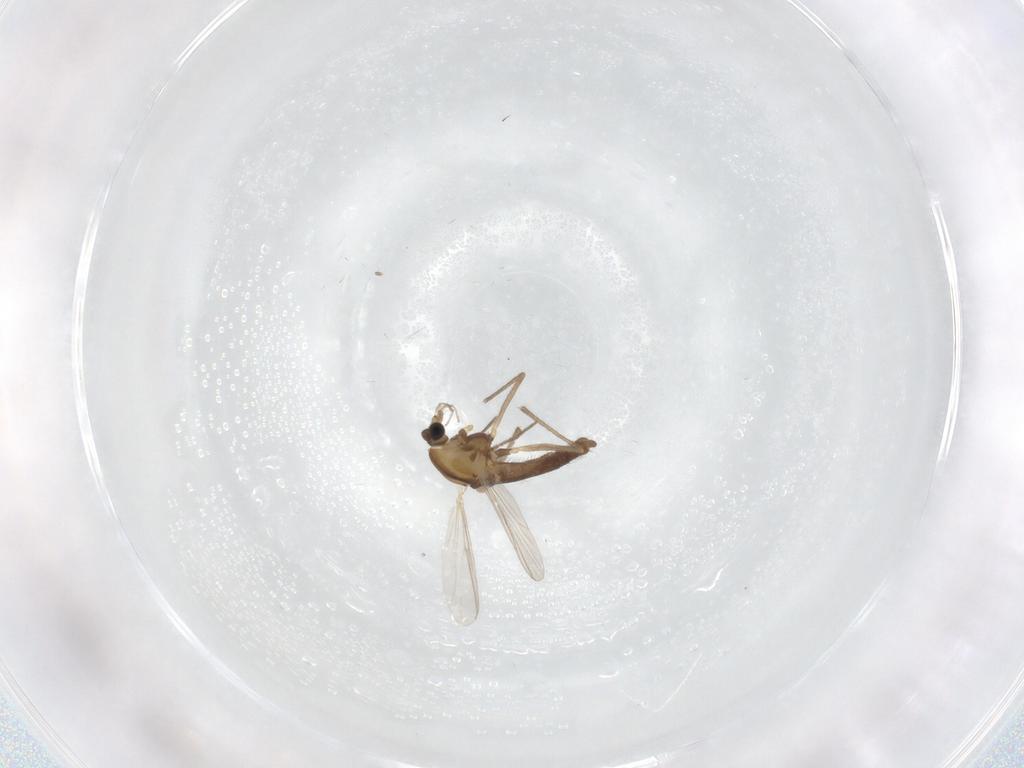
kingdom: Animalia
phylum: Arthropoda
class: Insecta
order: Diptera
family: Chironomidae
